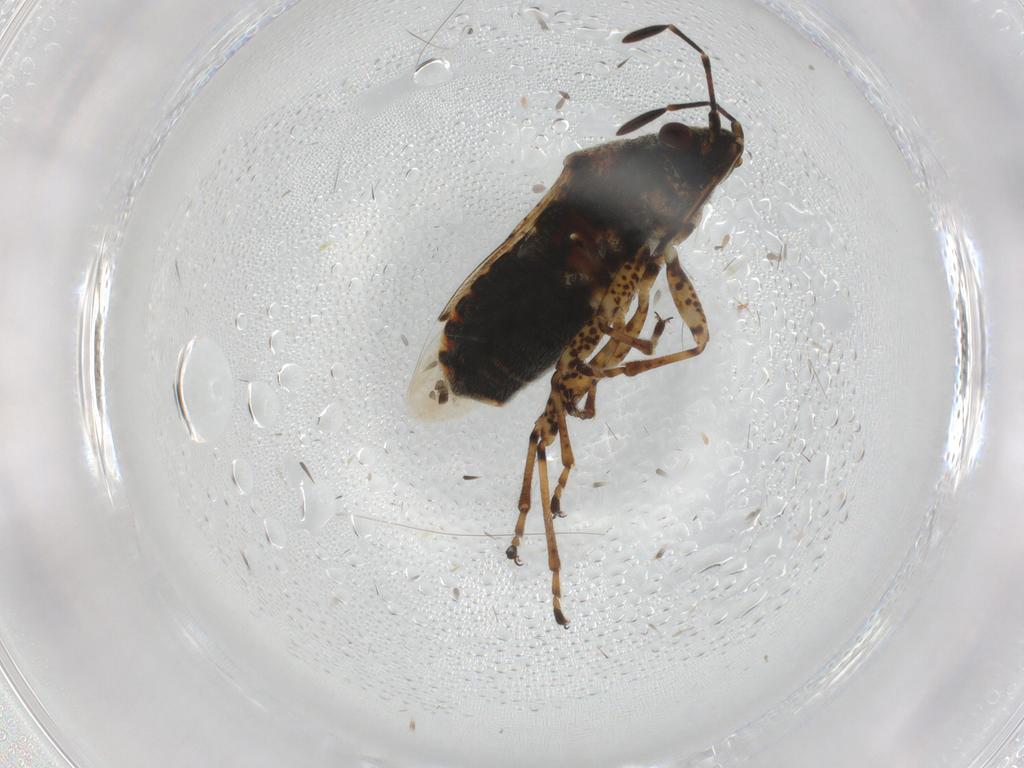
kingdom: Animalia
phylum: Arthropoda
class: Insecta
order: Hemiptera
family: Lygaeidae
